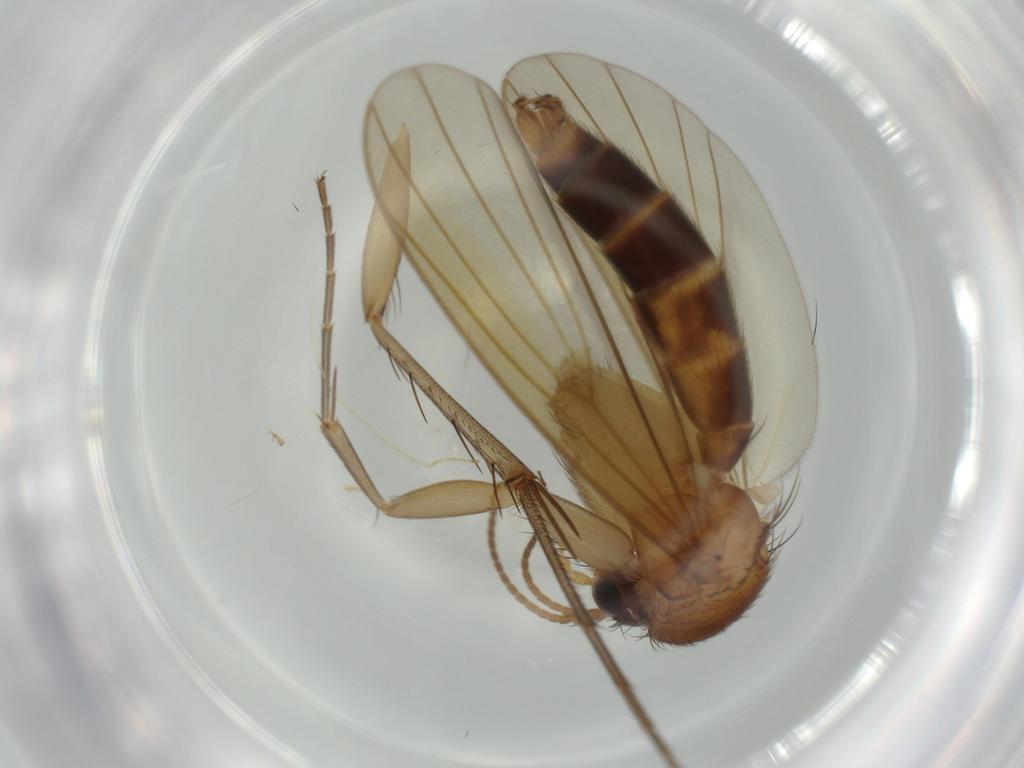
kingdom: Animalia
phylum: Arthropoda
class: Insecta
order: Diptera
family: Mycetophilidae
